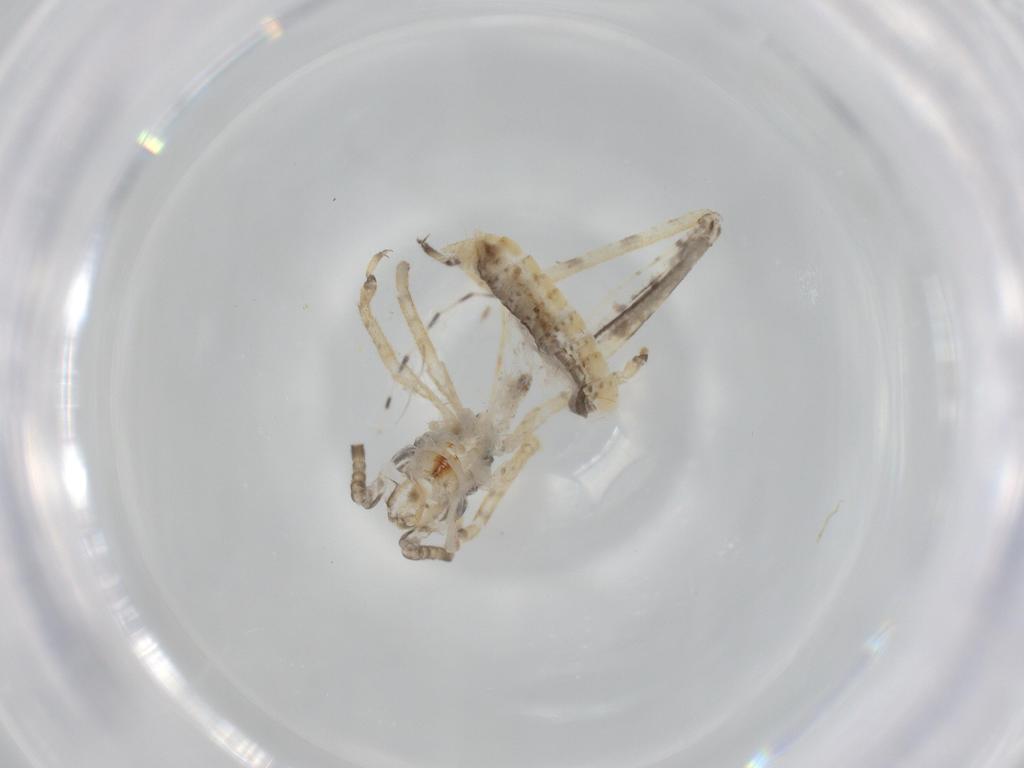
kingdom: Animalia
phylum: Arthropoda
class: Insecta
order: Orthoptera
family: Gryllidae
